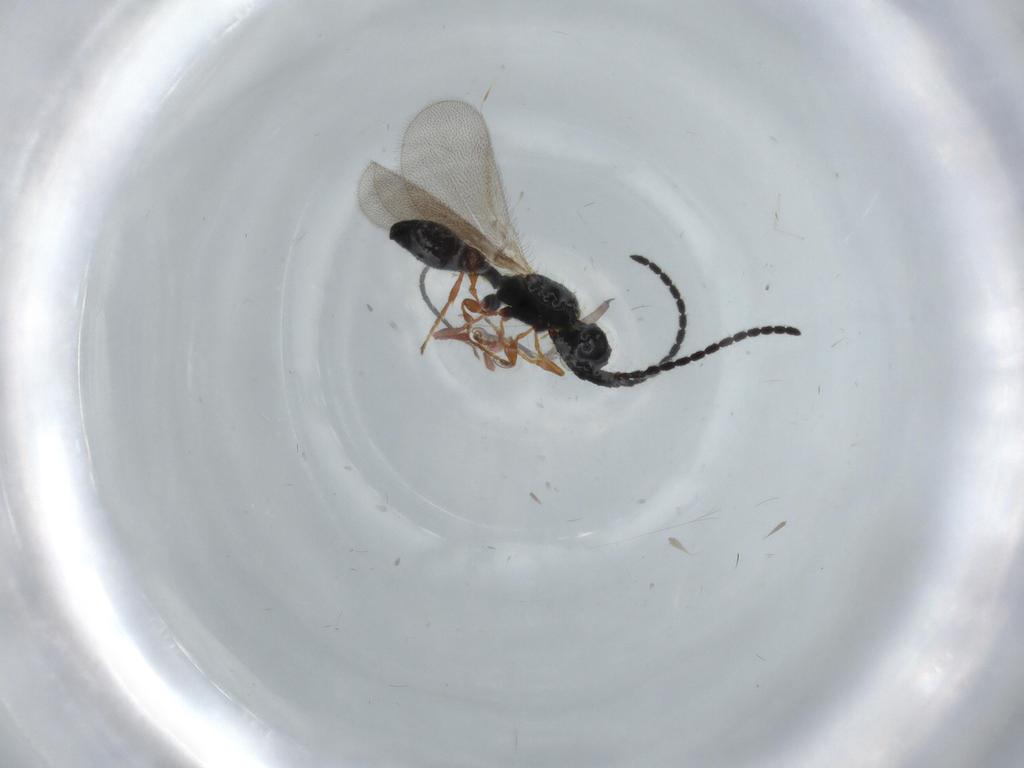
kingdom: Animalia
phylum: Arthropoda
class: Insecta
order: Hymenoptera
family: Diapriidae
